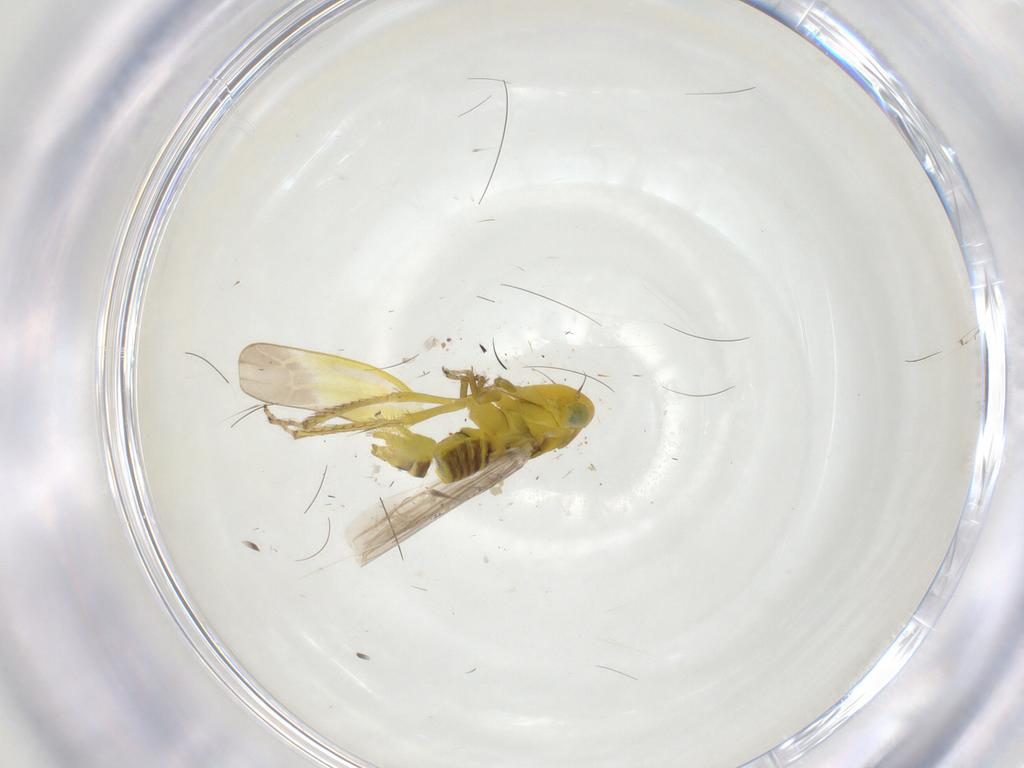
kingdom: Animalia
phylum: Arthropoda
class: Insecta
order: Hemiptera
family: Cicadellidae
